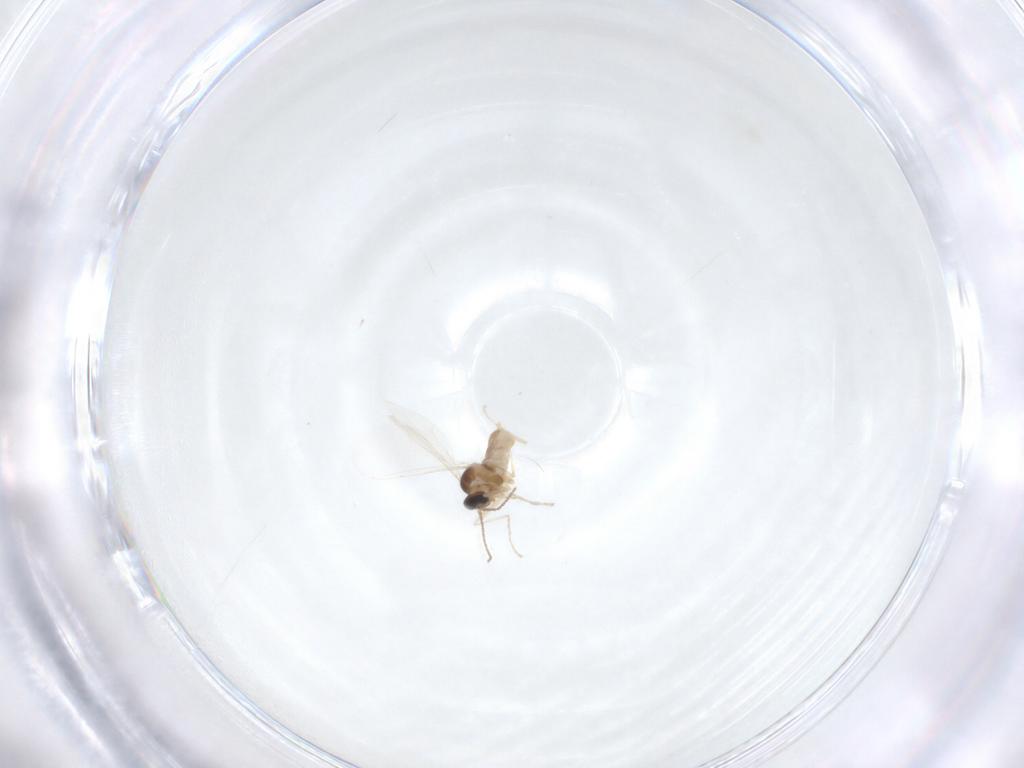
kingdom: Animalia
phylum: Arthropoda
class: Insecta
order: Diptera
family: Cecidomyiidae
